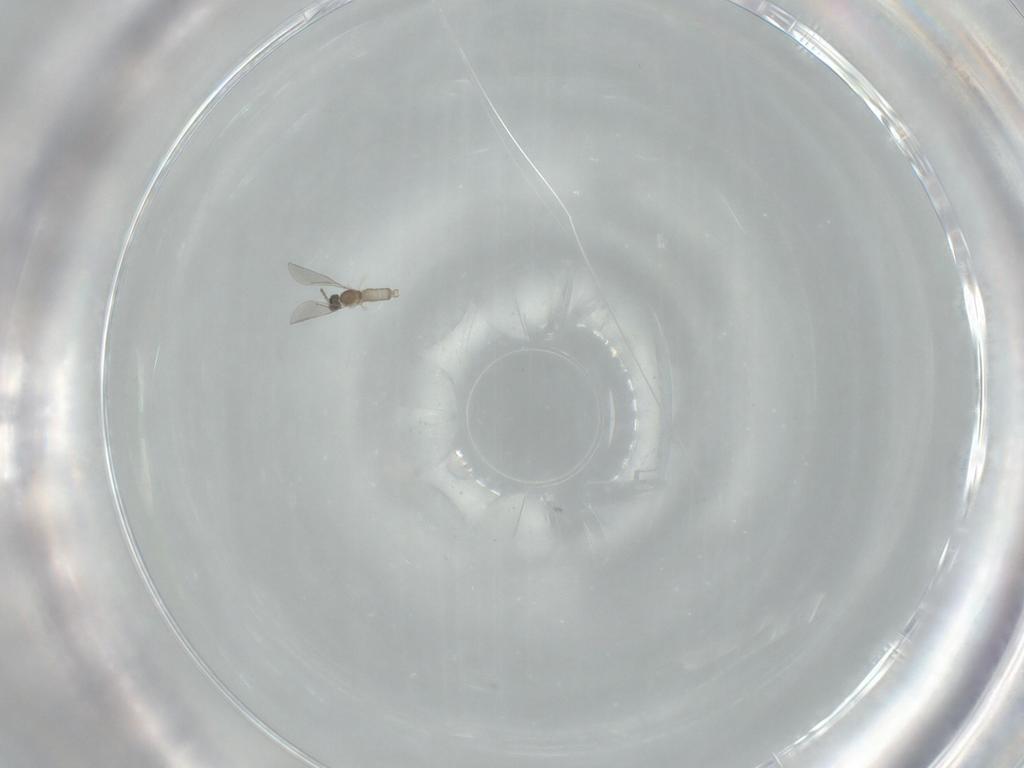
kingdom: Animalia
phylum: Arthropoda
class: Insecta
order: Diptera
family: Cecidomyiidae
